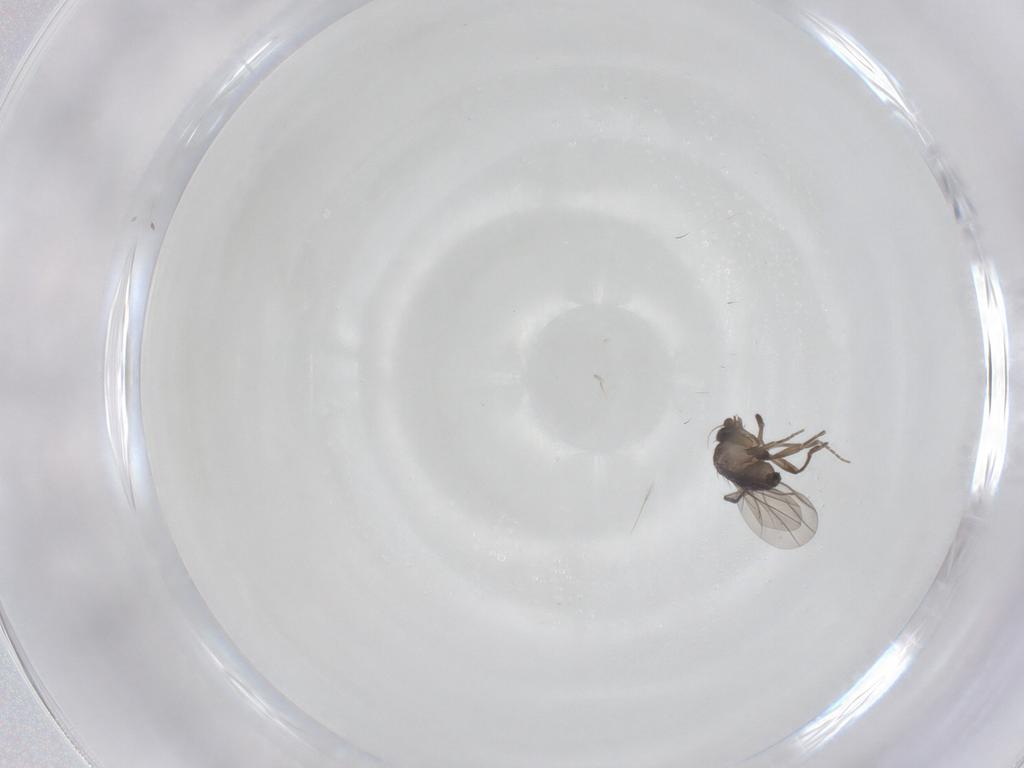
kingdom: Animalia
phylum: Arthropoda
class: Insecta
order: Diptera
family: Phoridae
